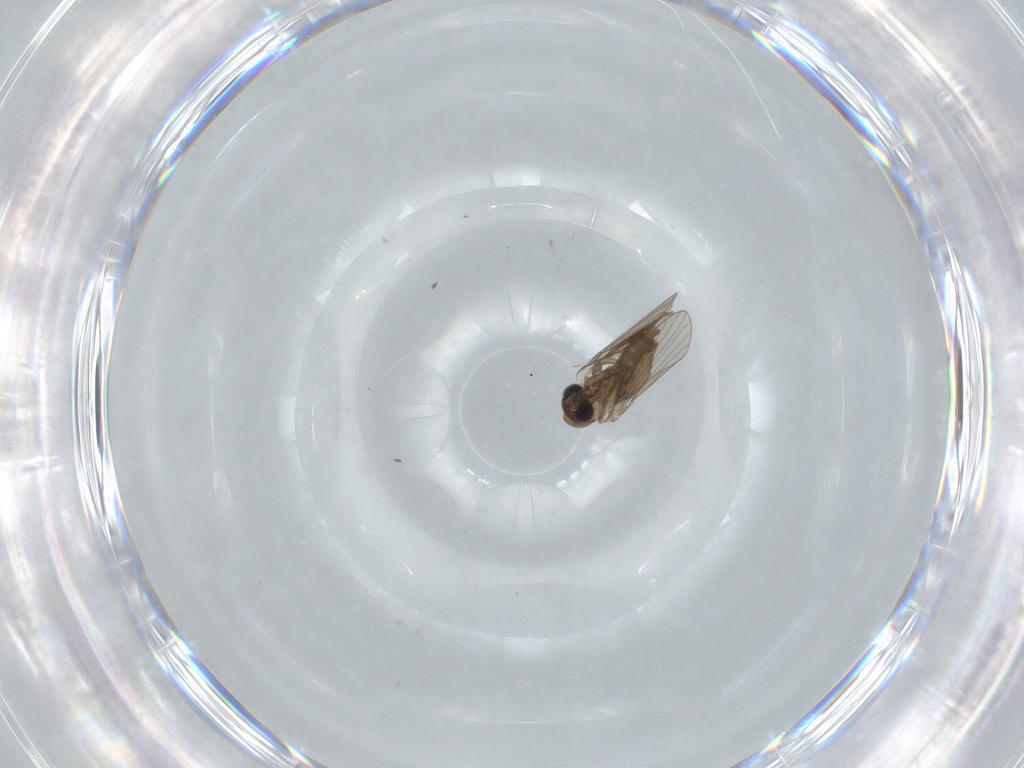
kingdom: Animalia
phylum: Arthropoda
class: Insecta
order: Diptera
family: Psychodidae
